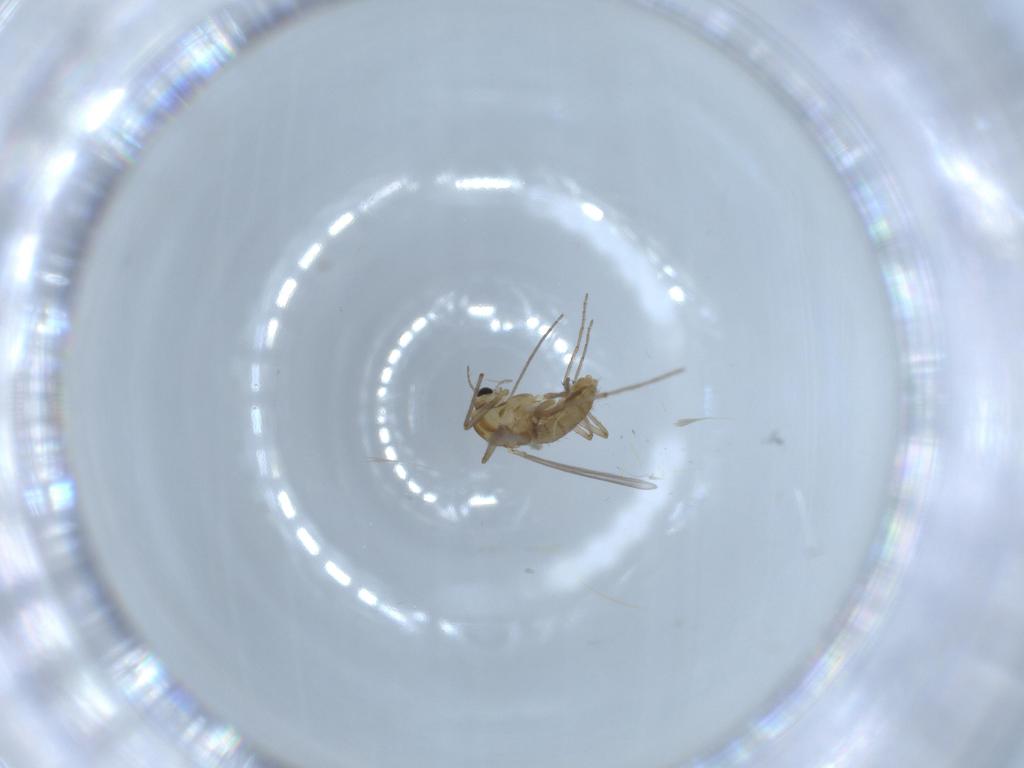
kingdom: Animalia
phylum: Arthropoda
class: Insecta
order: Diptera
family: Chironomidae
